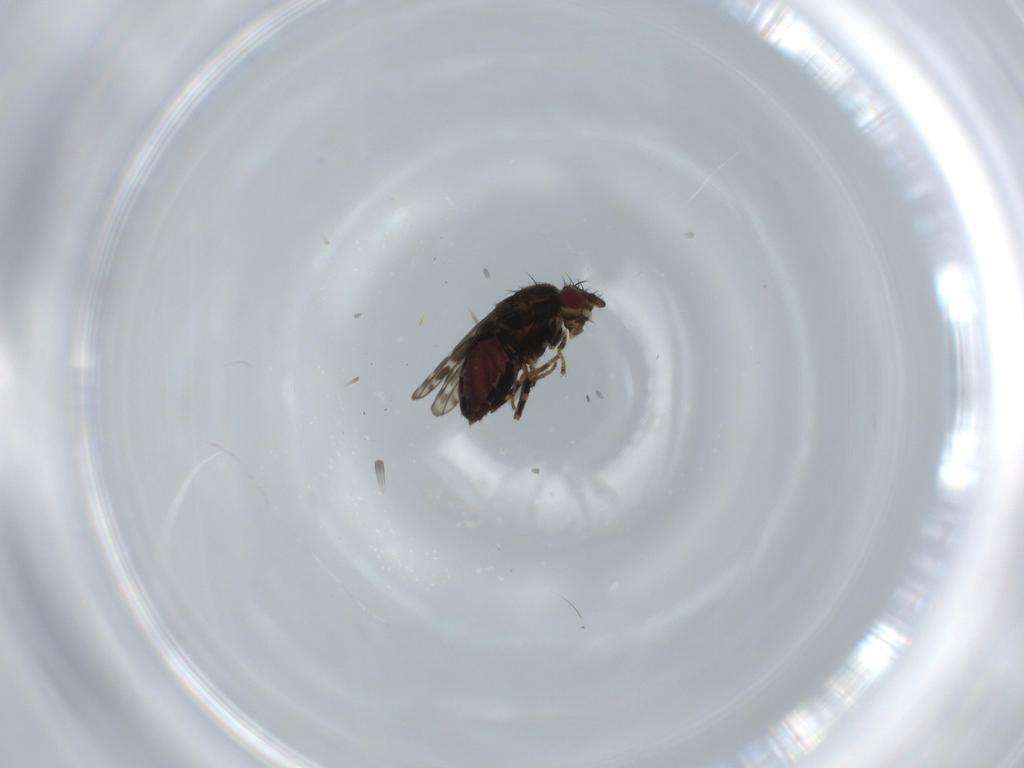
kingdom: Animalia
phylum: Arthropoda
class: Insecta
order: Diptera
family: Sphaeroceridae
